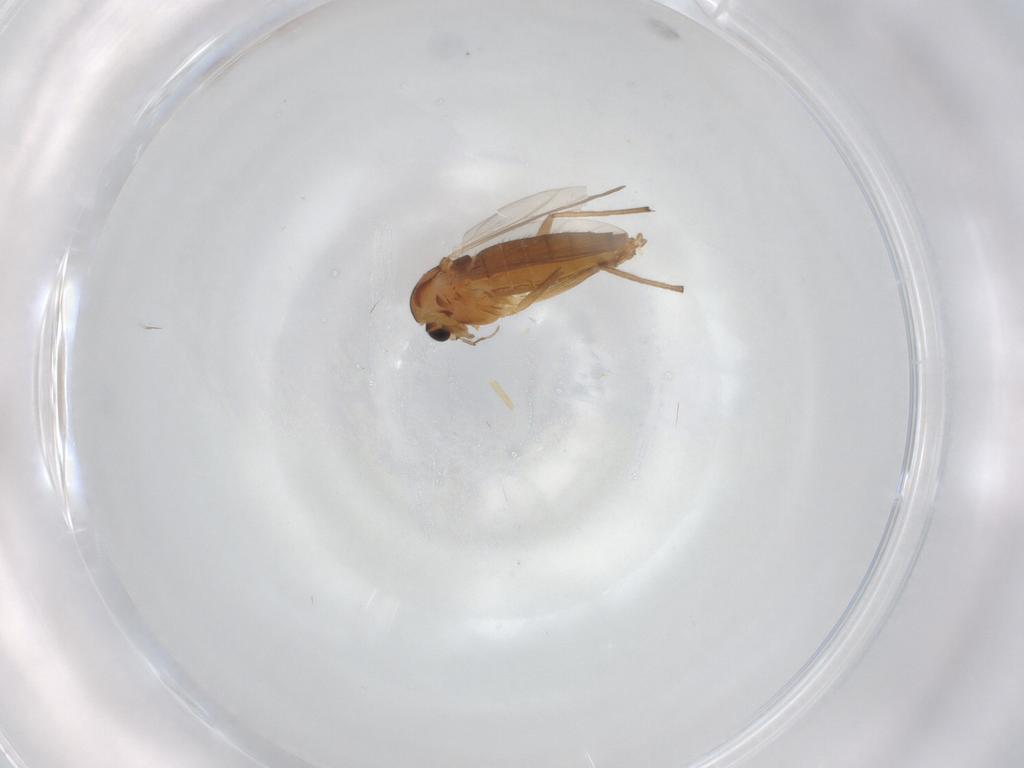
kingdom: Animalia
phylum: Arthropoda
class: Insecta
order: Diptera
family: Chironomidae
